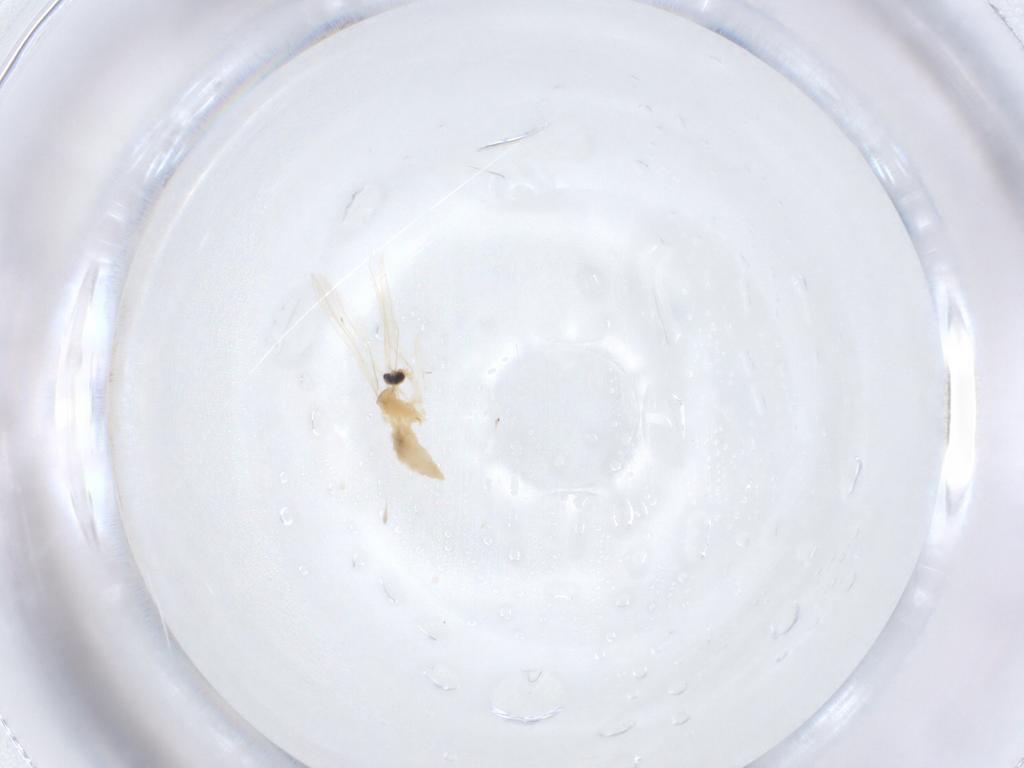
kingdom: Animalia
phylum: Arthropoda
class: Insecta
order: Diptera
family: Cecidomyiidae
